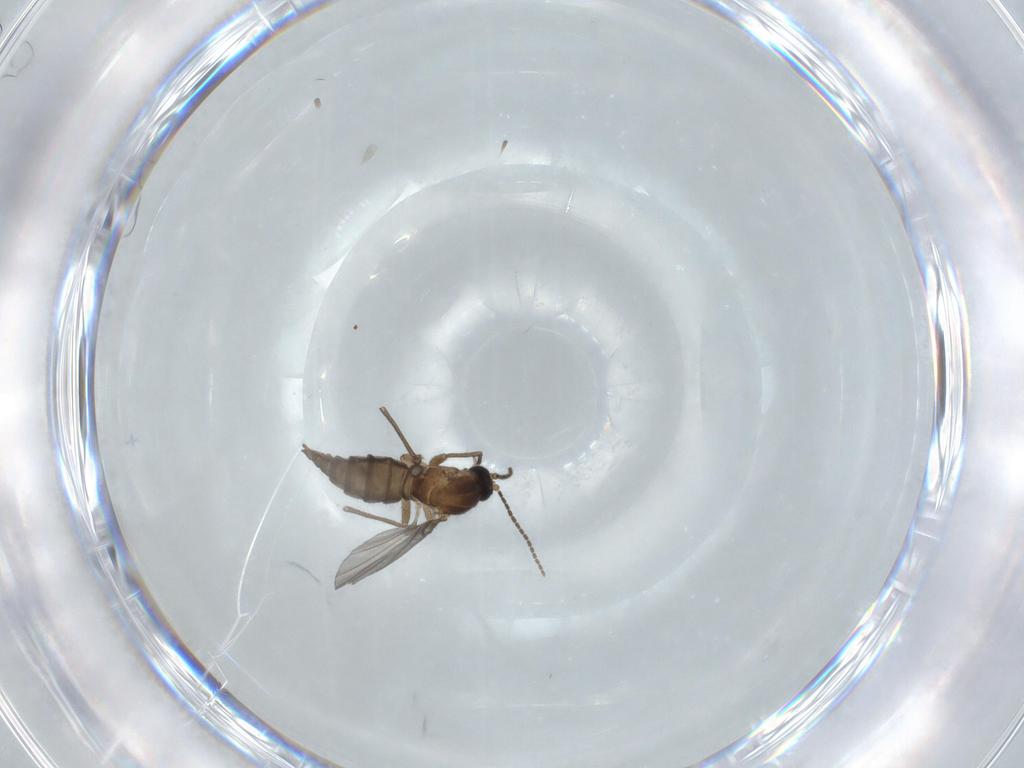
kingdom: Animalia
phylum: Arthropoda
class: Insecta
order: Diptera
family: Sciaridae
